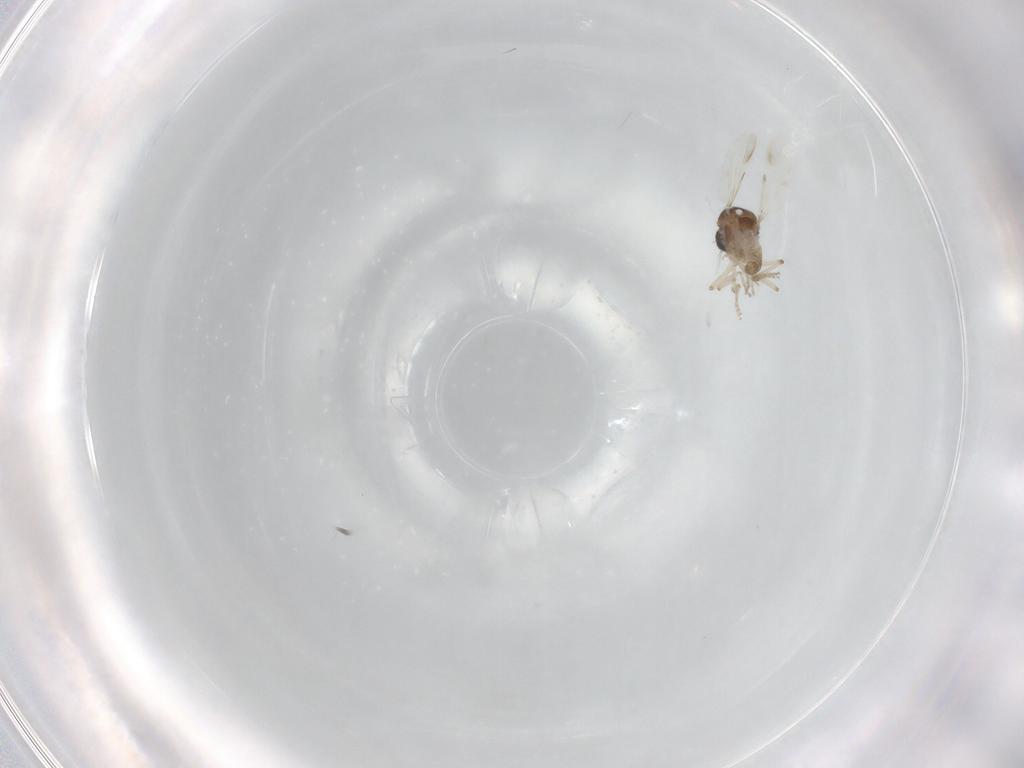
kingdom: Animalia
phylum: Arthropoda
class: Insecta
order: Diptera
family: Ceratopogonidae
